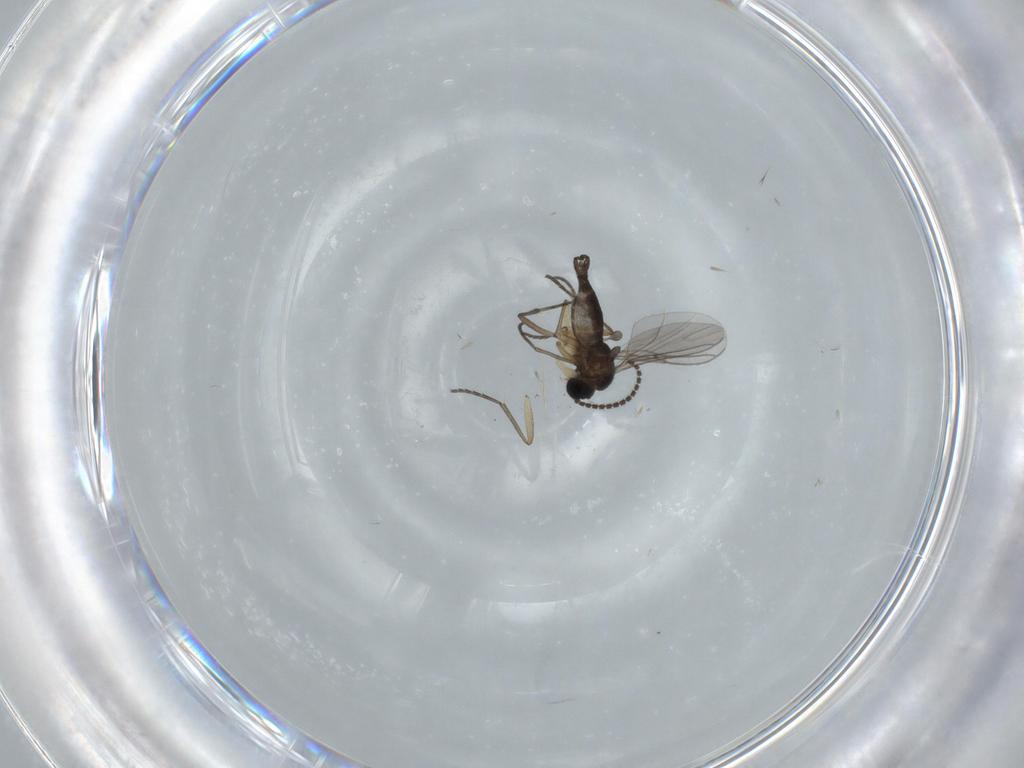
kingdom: Animalia
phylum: Arthropoda
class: Insecta
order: Diptera
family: Sciaridae
